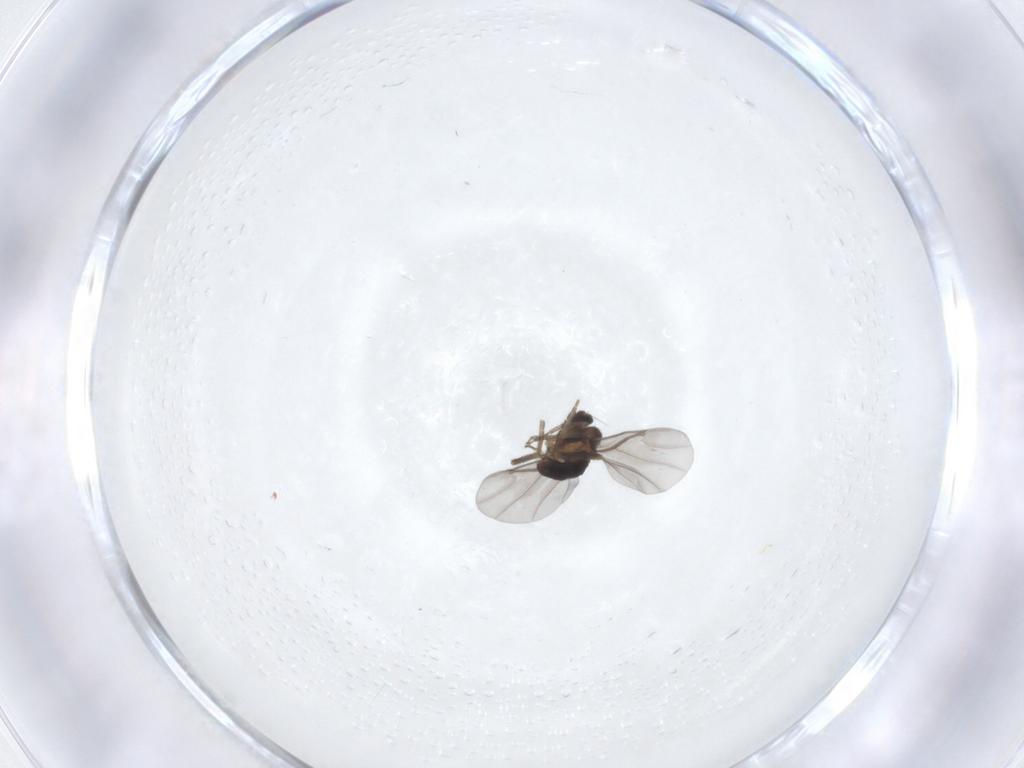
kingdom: Animalia
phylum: Arthropoda
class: Insecta
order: Diptera
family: Phoridae
